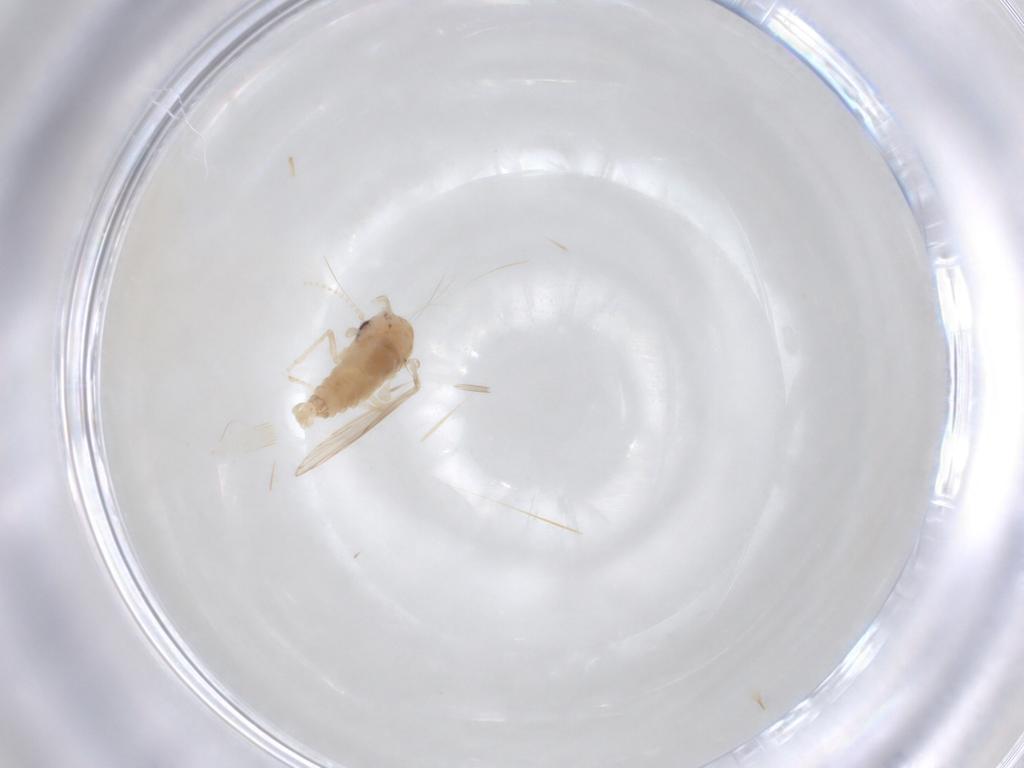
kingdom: Animalia
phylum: Arthropoda
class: Insecta
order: Diptera
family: Psychodidae
